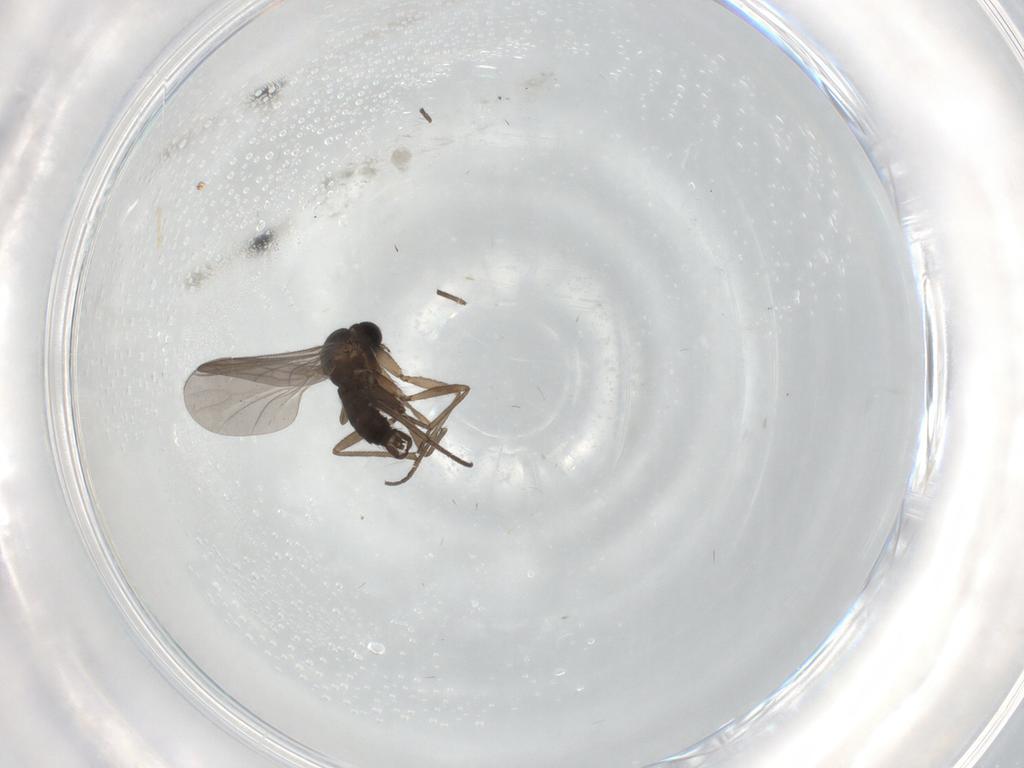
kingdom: Animalia
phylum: Arthropoda
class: Insecta
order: Diptera
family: Sciaridae
